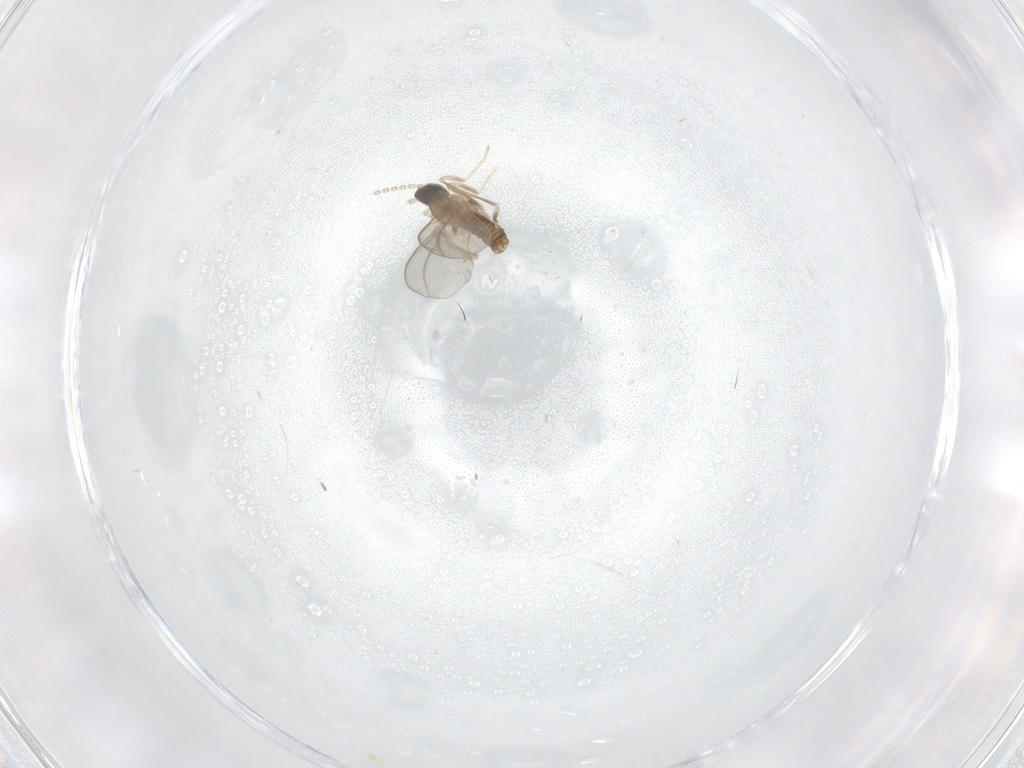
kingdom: Animalia
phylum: Arthropoda
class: Insecta
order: Diptera
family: Phoridae
